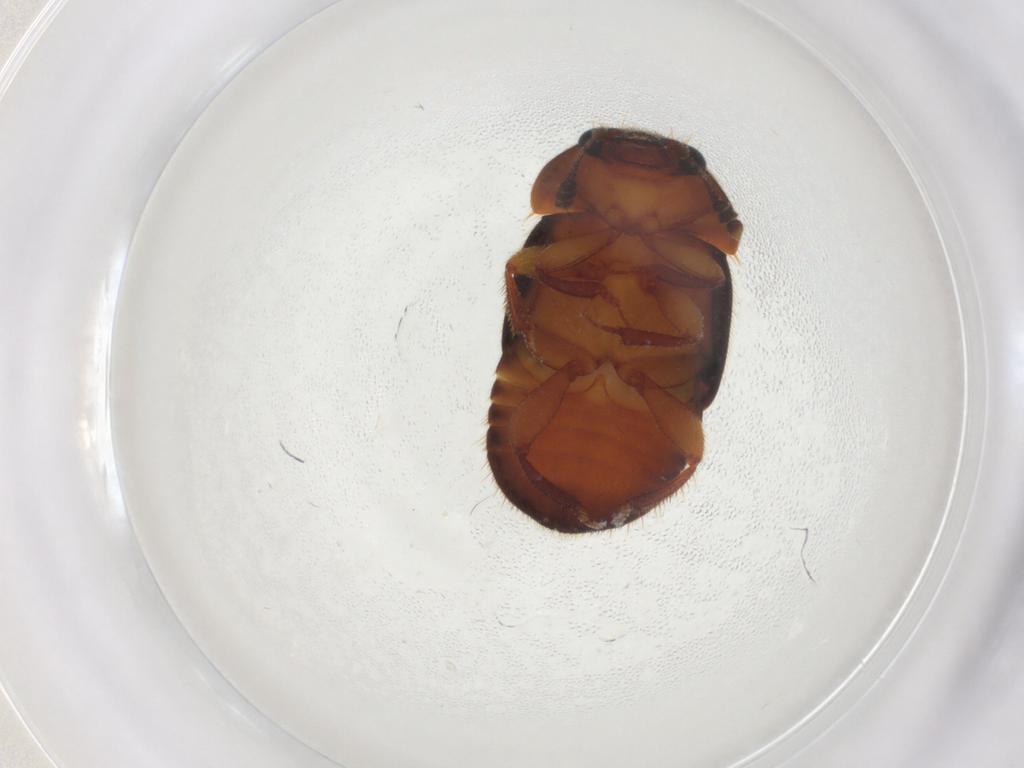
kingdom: Animalia
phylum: Arthropoda
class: Insecta
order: Coleoptera
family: Nitidulidae
